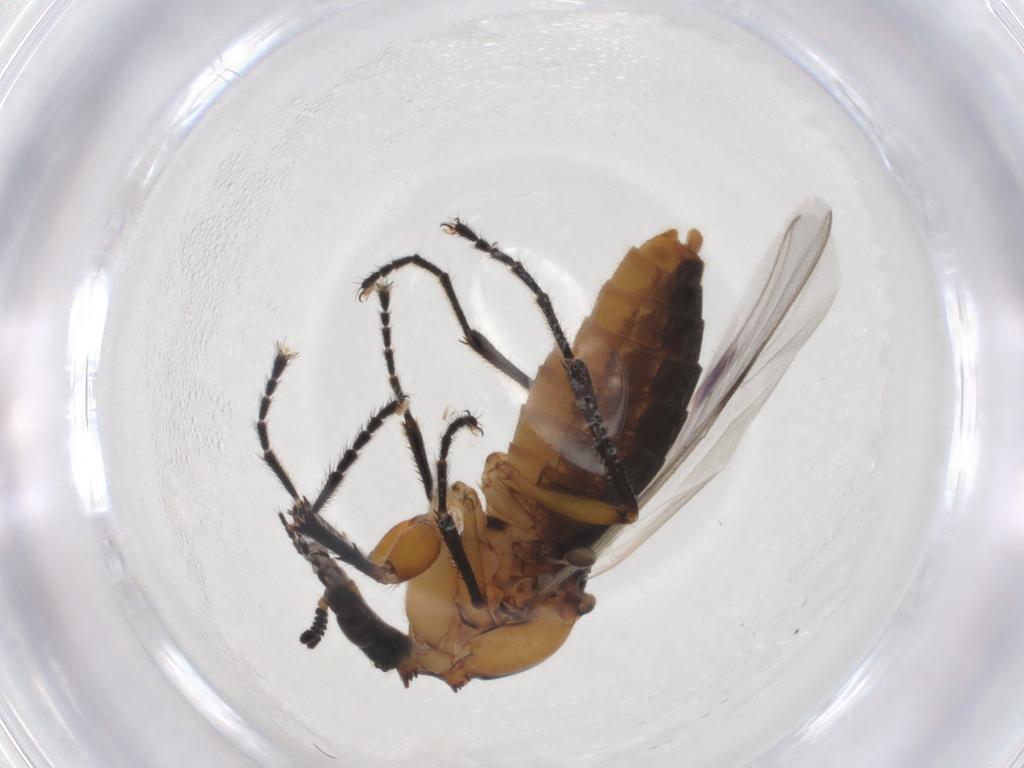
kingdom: Animalia
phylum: Arthropoda
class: Insecta
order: Diptera
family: Bibionidae
